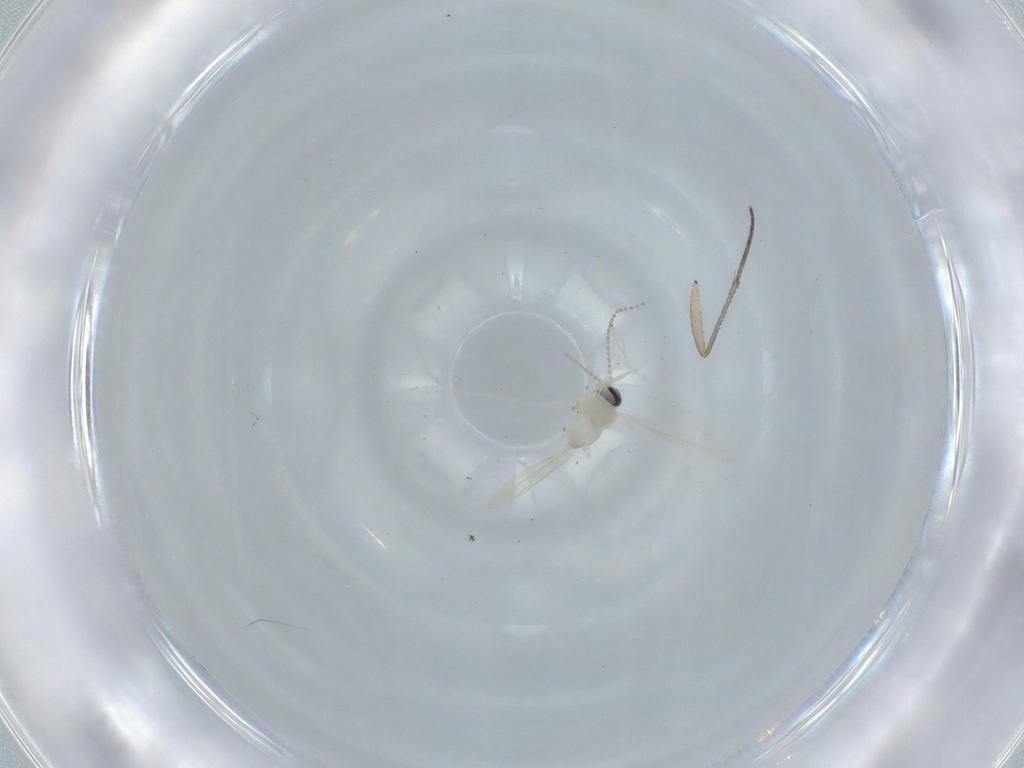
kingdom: Animalia
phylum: Arthropoda
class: Insecta
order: Diptera
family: Cecidomyiidae
